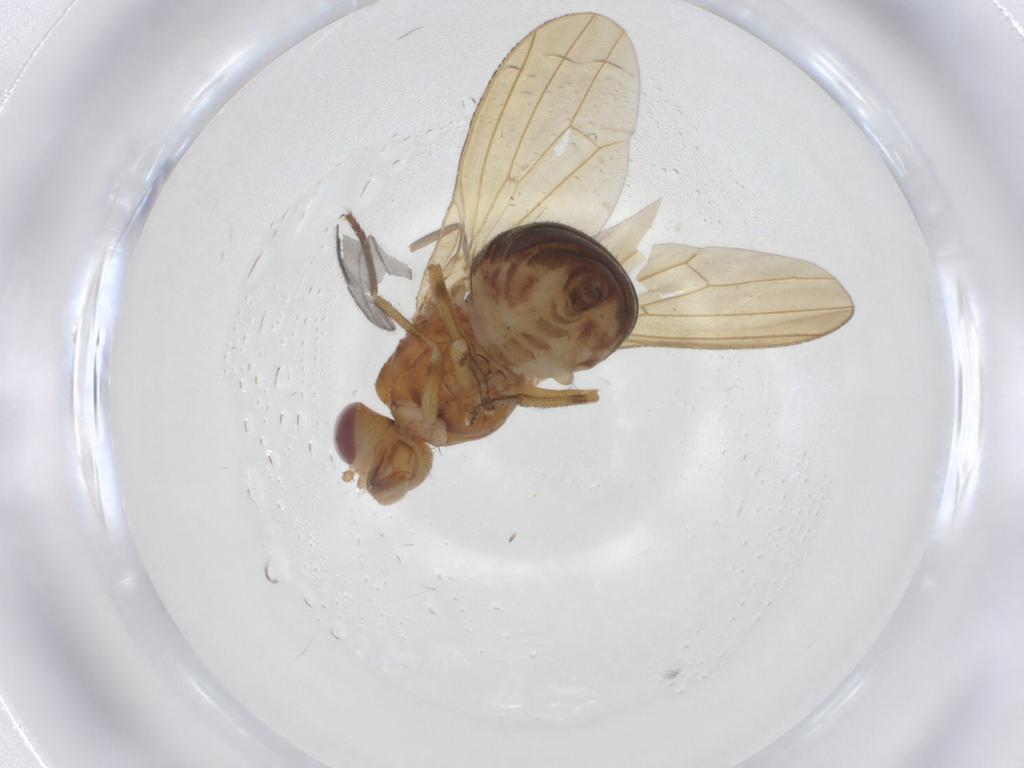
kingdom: Animalia
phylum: Arthropoda
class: Insecta
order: Diptera
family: Lauxaniidae
